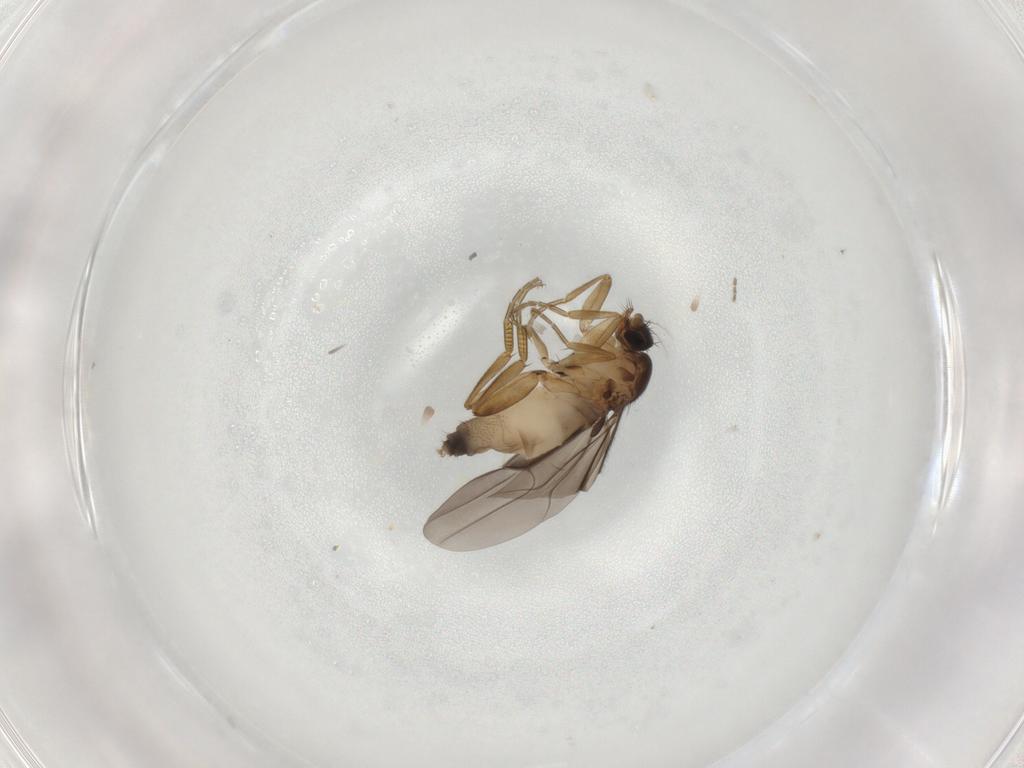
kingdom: Animalia
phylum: Arthropoda
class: Insecta
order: Diptera
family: Phoridae
